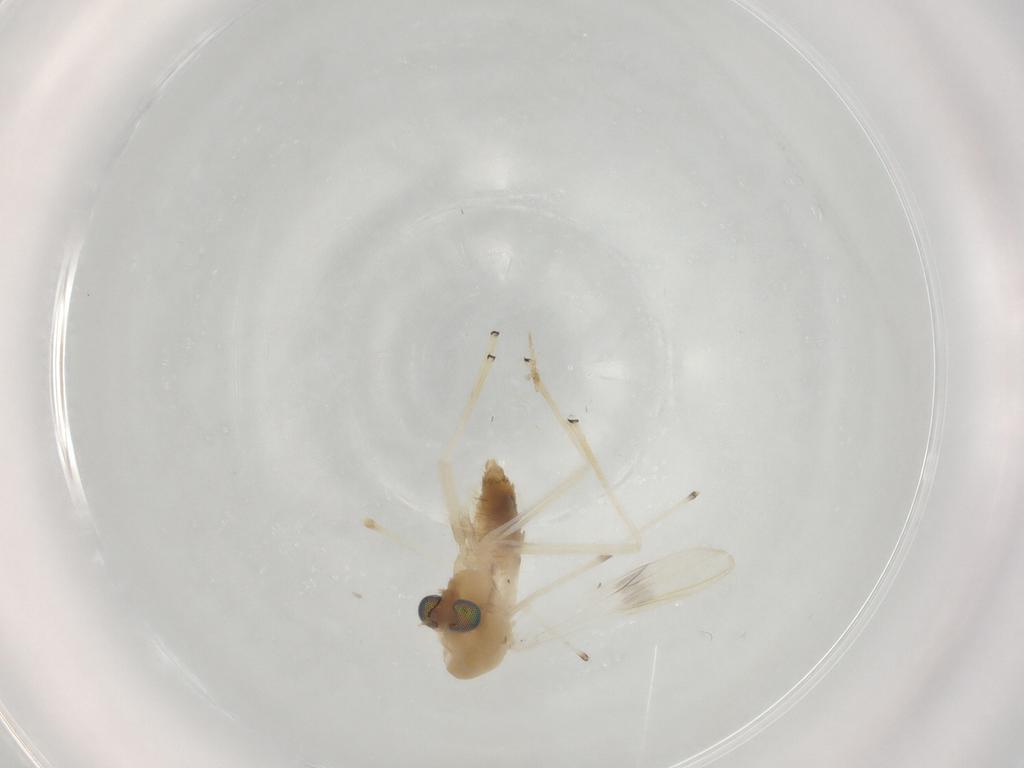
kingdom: Animalia
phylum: Arthropoda
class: Insecta
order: Diptera
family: Chironomidae
